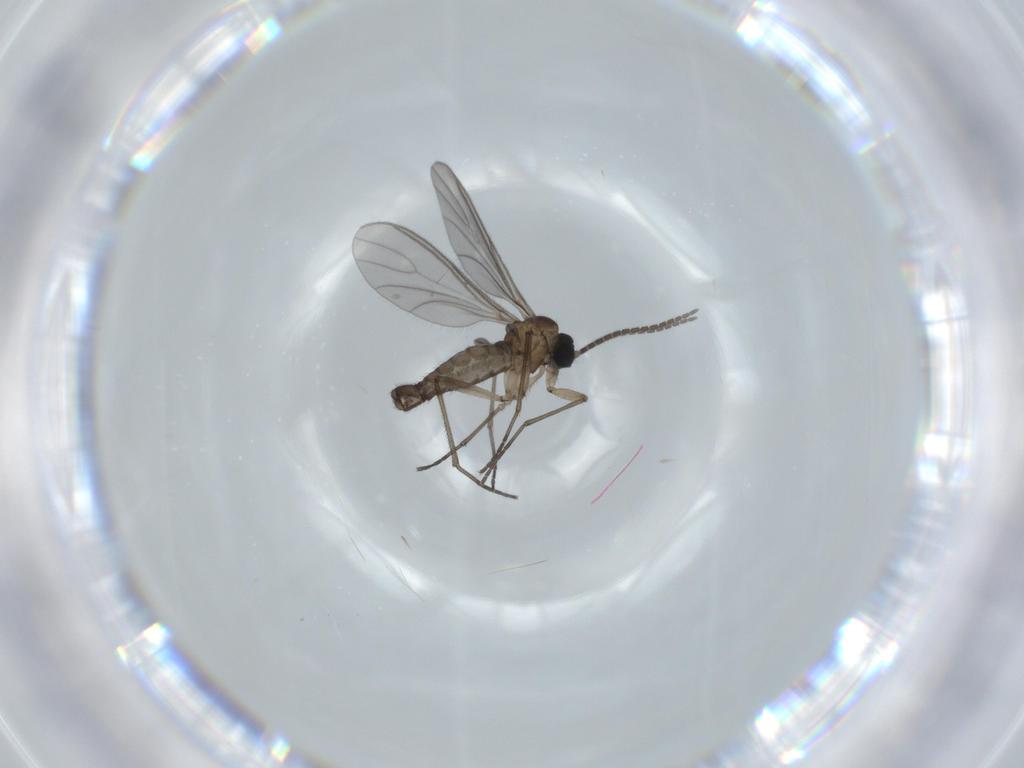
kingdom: Animalia
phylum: Arthropoda
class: Insecta
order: Diptera
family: Sciaridae
